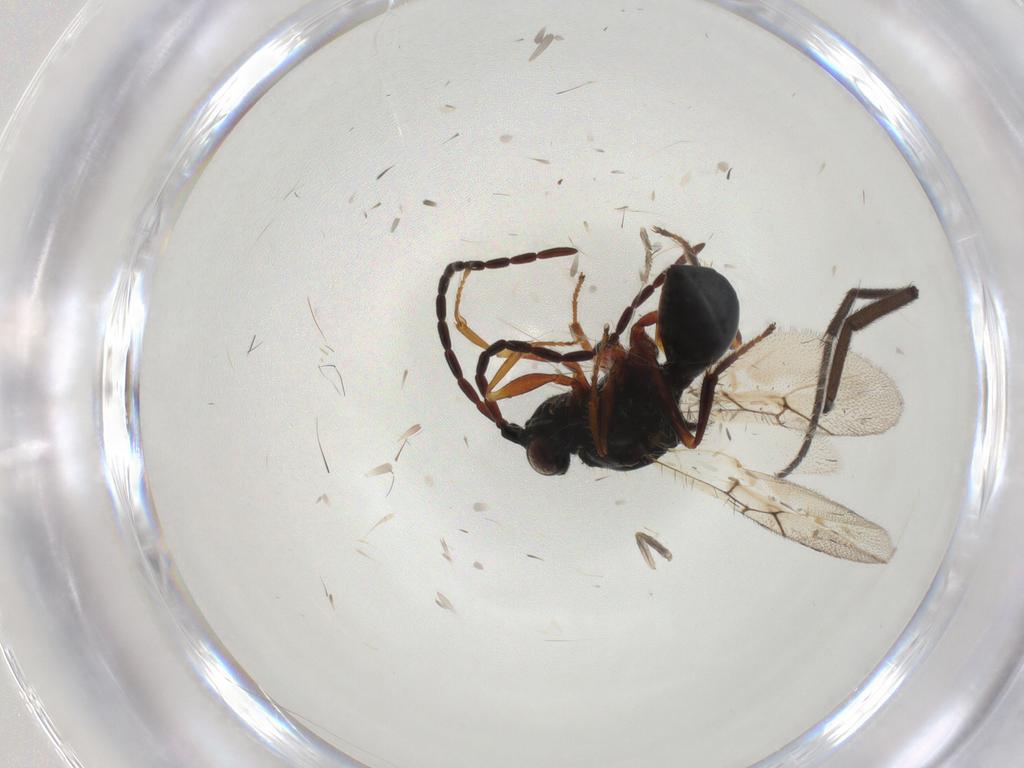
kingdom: Animalia
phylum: Arthropoda
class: Insecta
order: Hymenoptera
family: Figitidae
